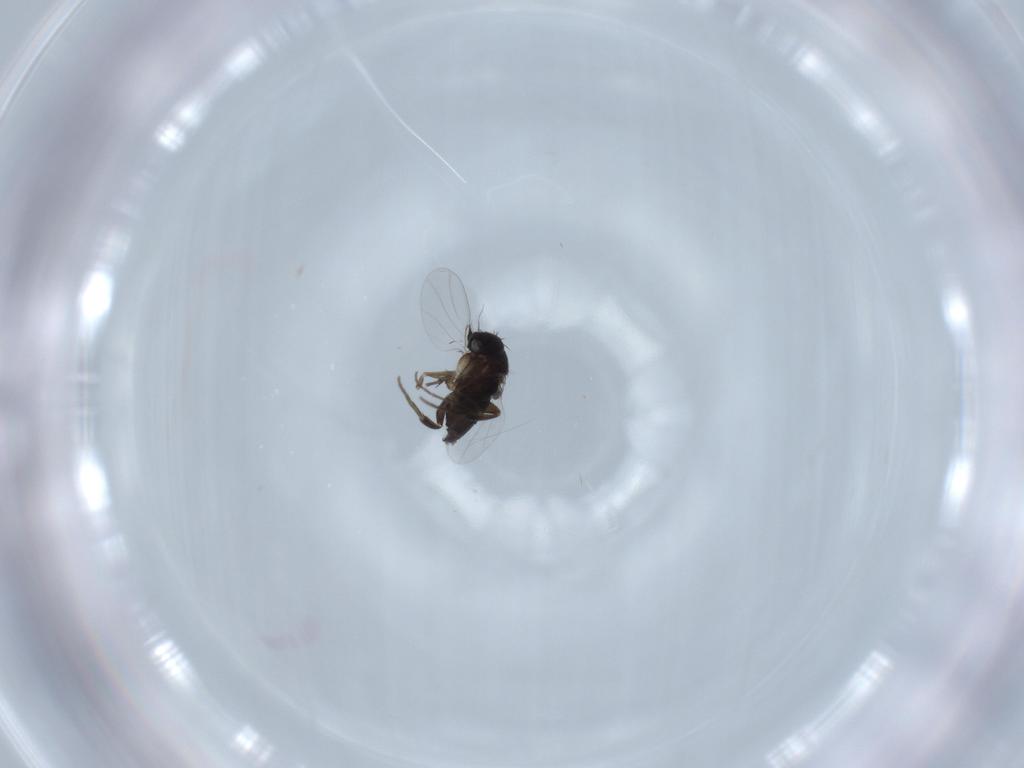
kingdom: Animalia
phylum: Arthropoda
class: Insecta
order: Diptera
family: Phoridae
